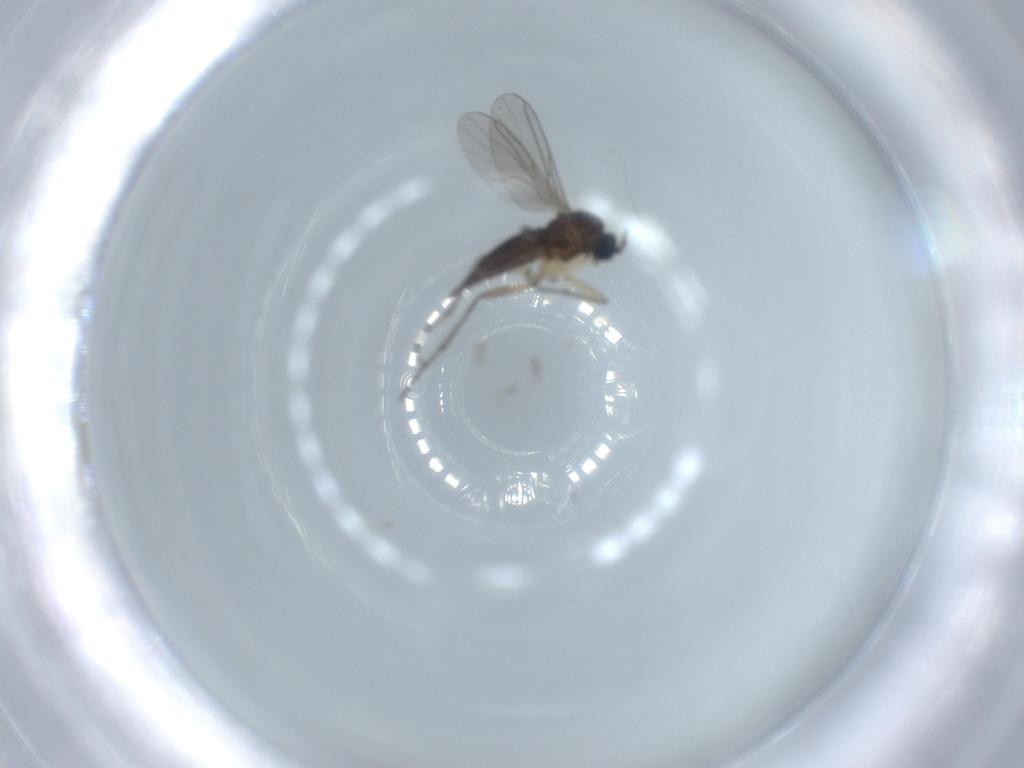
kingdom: Animalia
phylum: Arthropoda
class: Insecta
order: Diptera
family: Sciaridae
